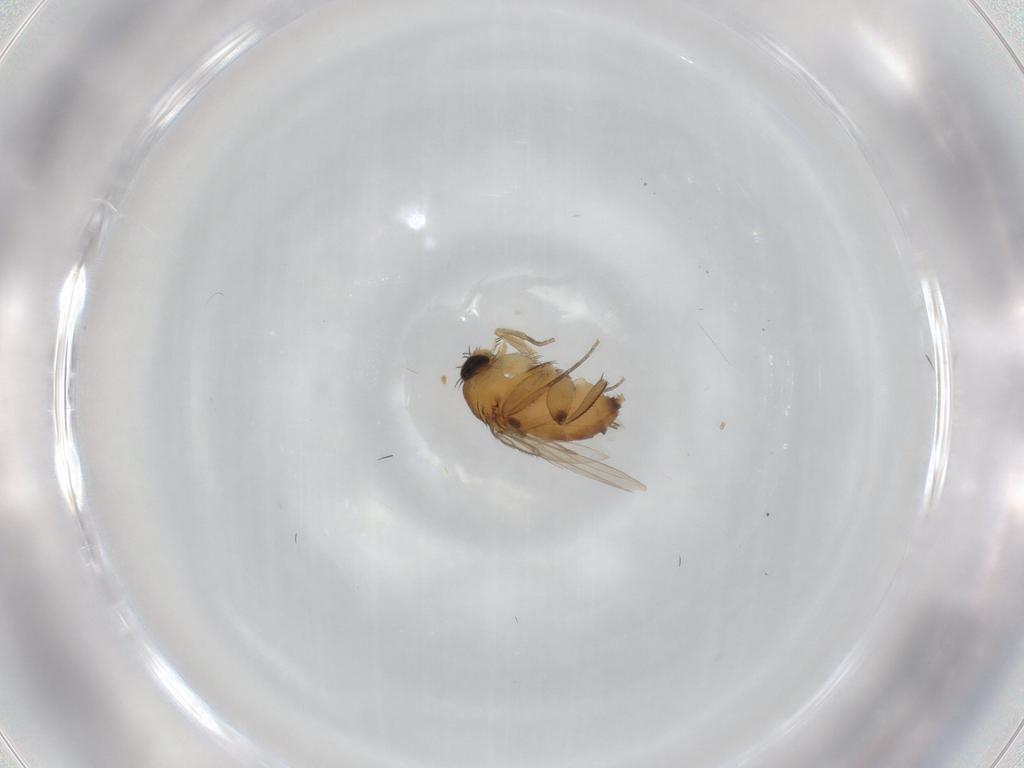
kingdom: Animalia
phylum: Arthropoda
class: Insecta
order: Diptera
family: Phoridae
